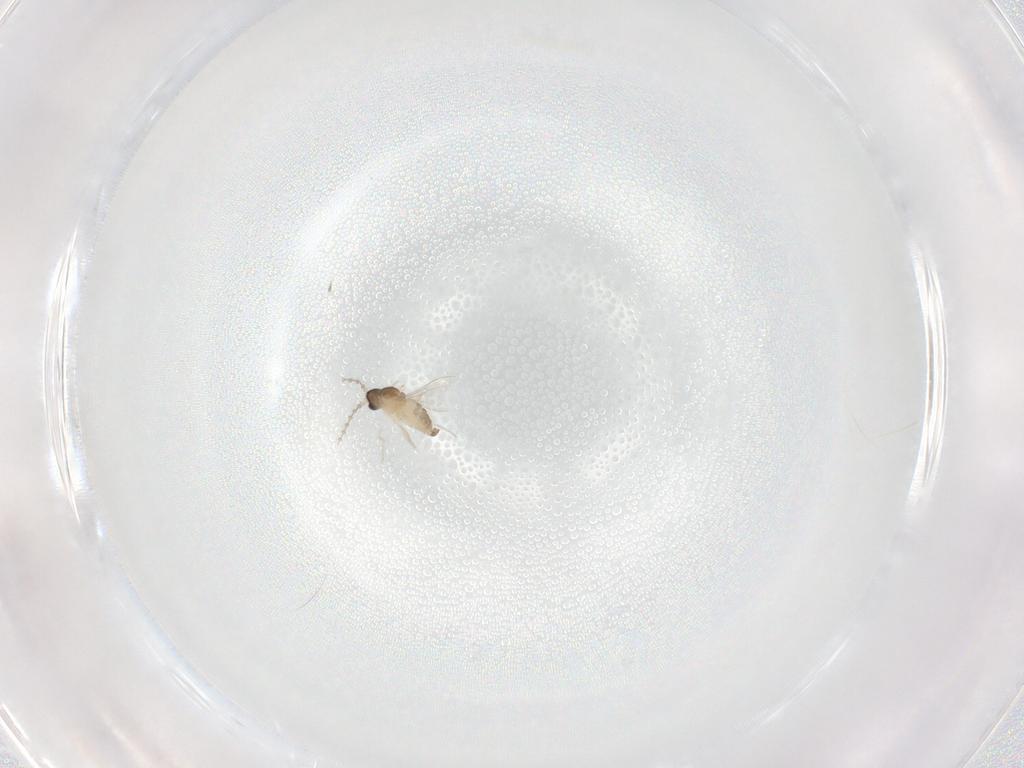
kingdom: Animalia
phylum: Arthropoda
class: Insecta
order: Diptera
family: Cecidomyiidae
